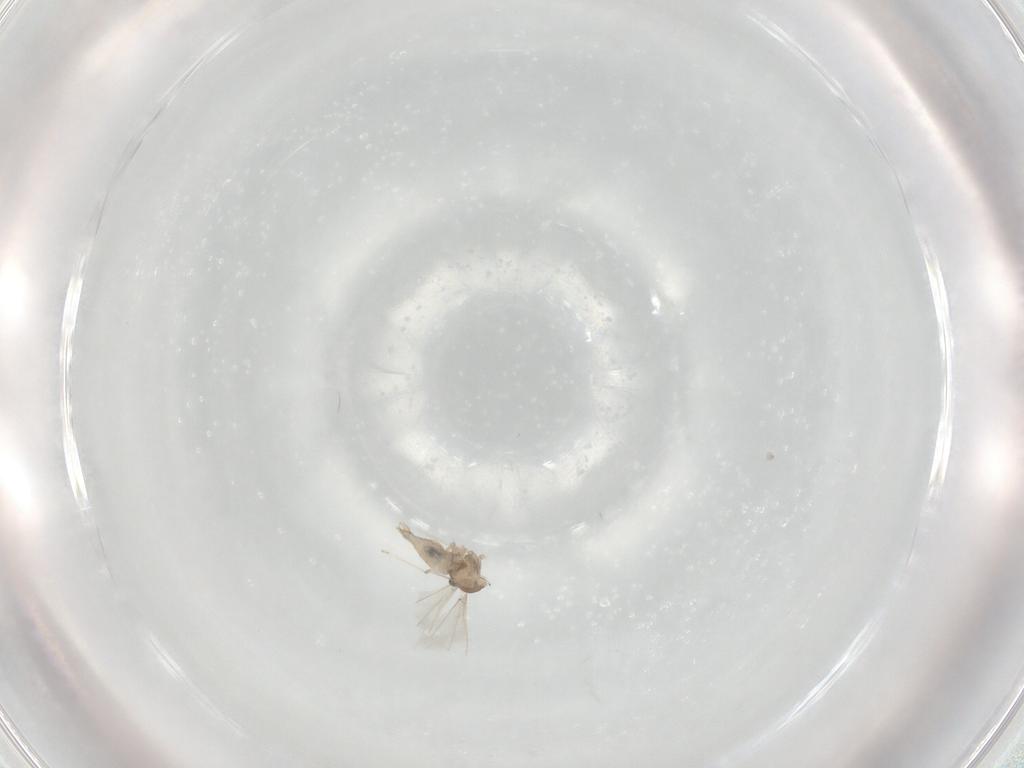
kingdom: Animalia
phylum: Arthropoda
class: Insecta
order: Diptera
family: Cecidomyiidae
